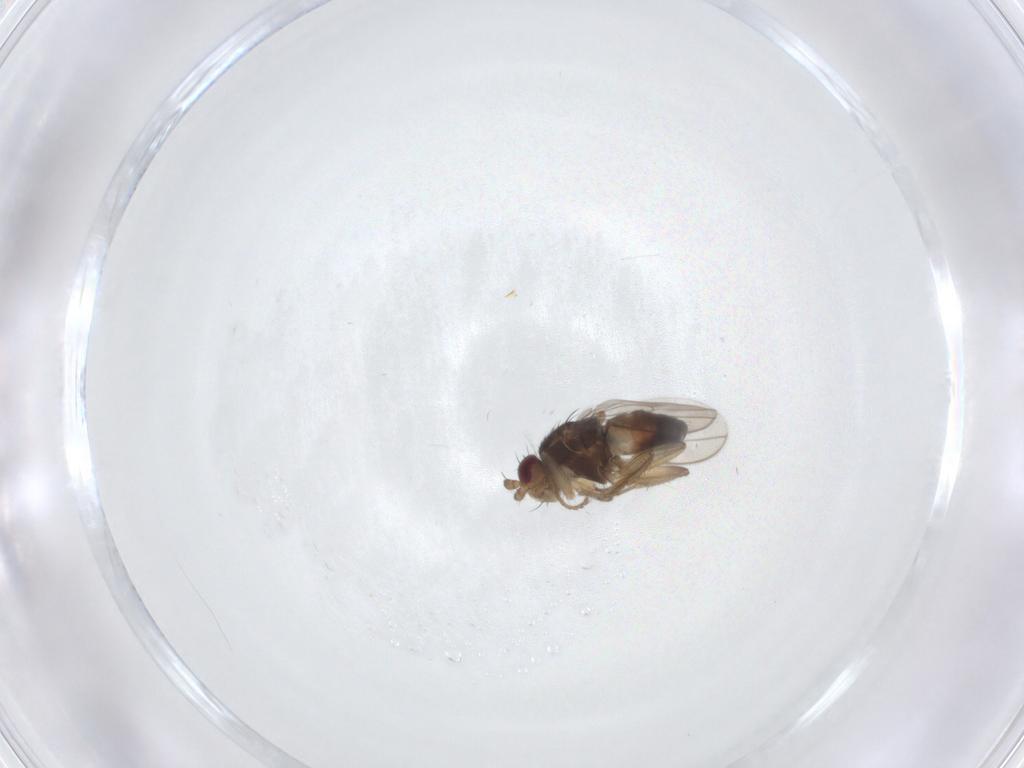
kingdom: Animalia
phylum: Arthropoda
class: Insecta
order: Diptera
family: Sphaeroceridae
